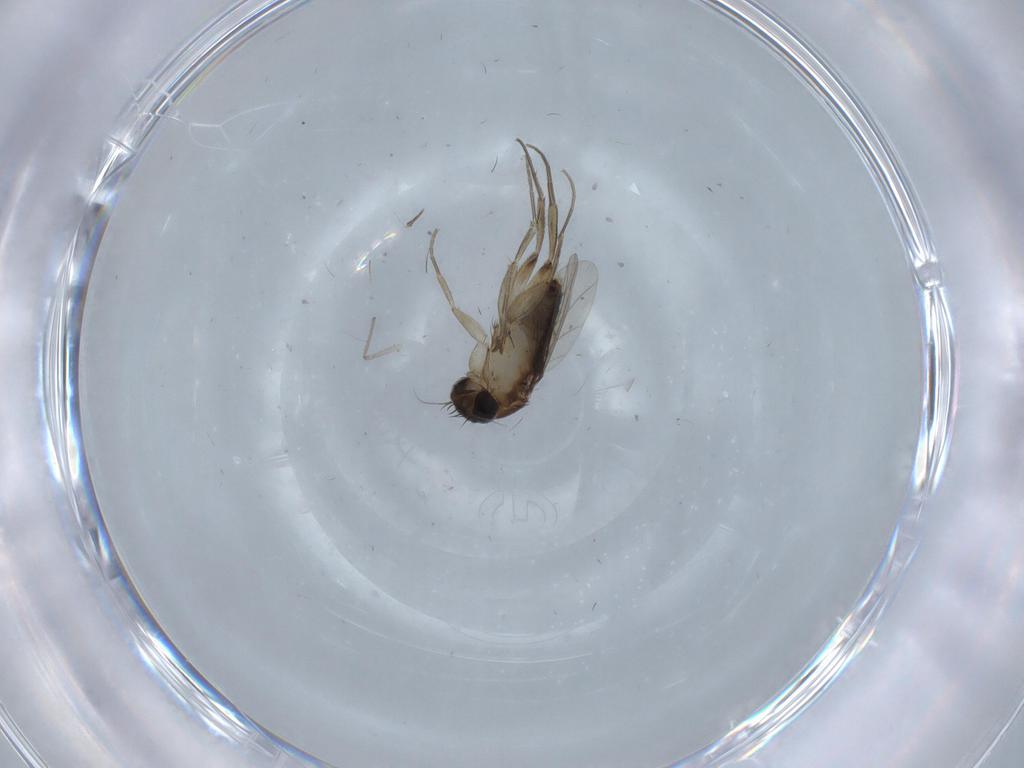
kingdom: Animalia
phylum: Arthropoda
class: Insecta
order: Diptera
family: Phoridae
